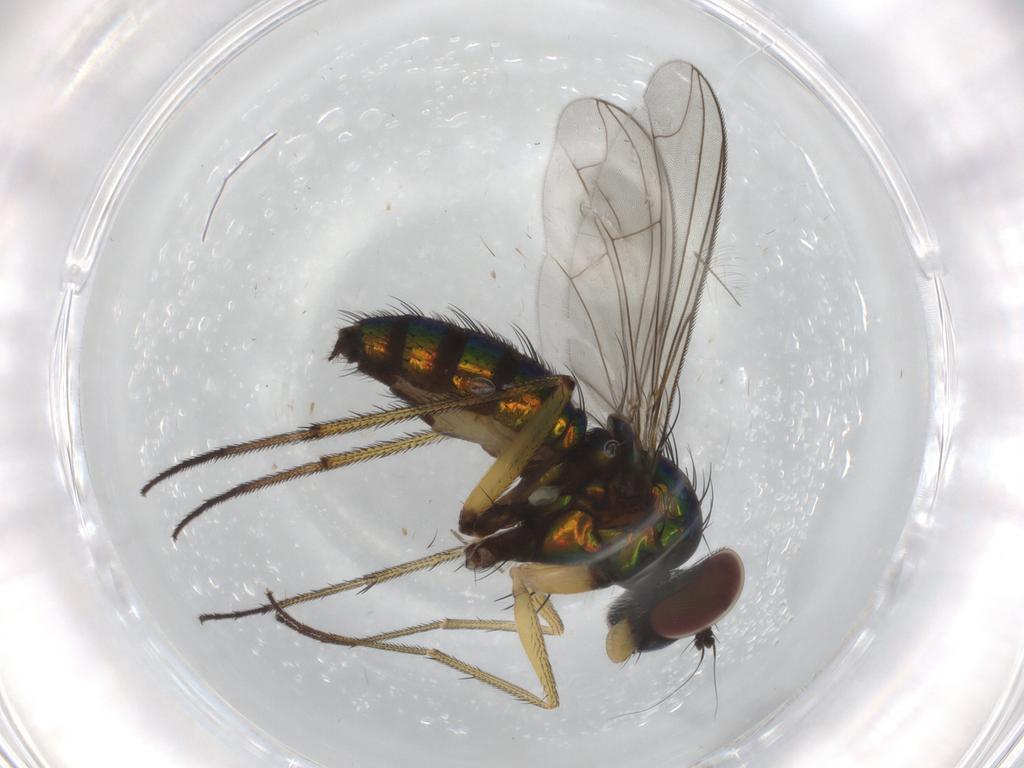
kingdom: Animalia
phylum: Arthropoda
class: Insecta
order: Diptera
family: Dolichopodidae
